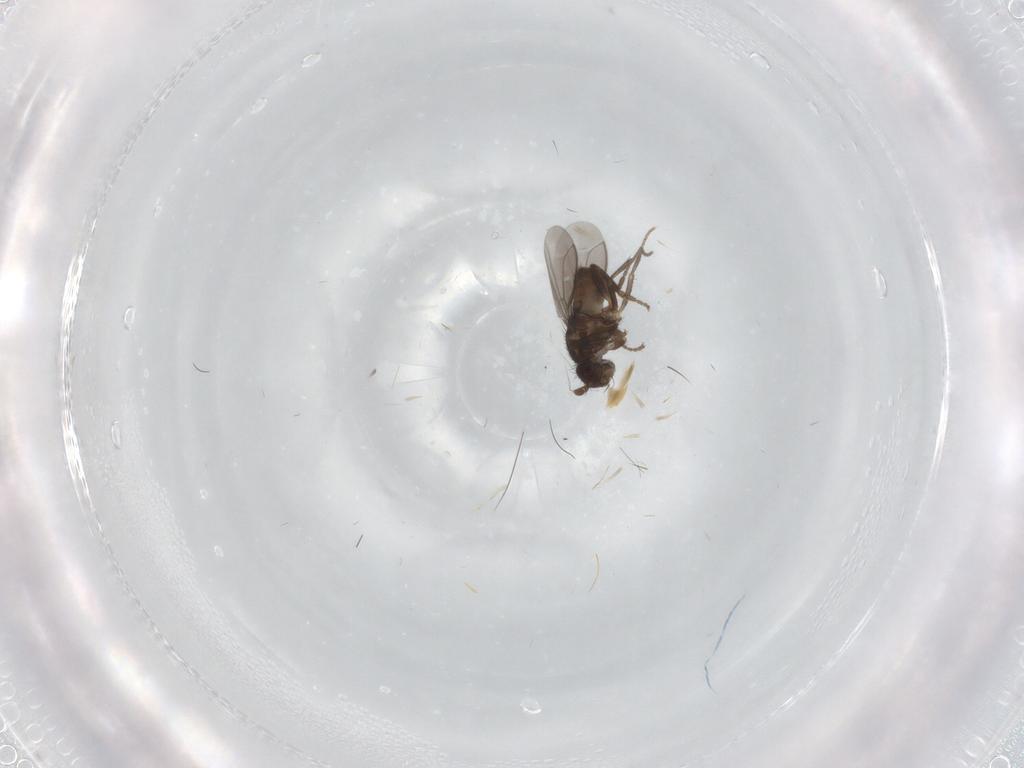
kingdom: Animalia
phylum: Arthropoda
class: Insecta
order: Diptera
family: Sphaeroceridae
